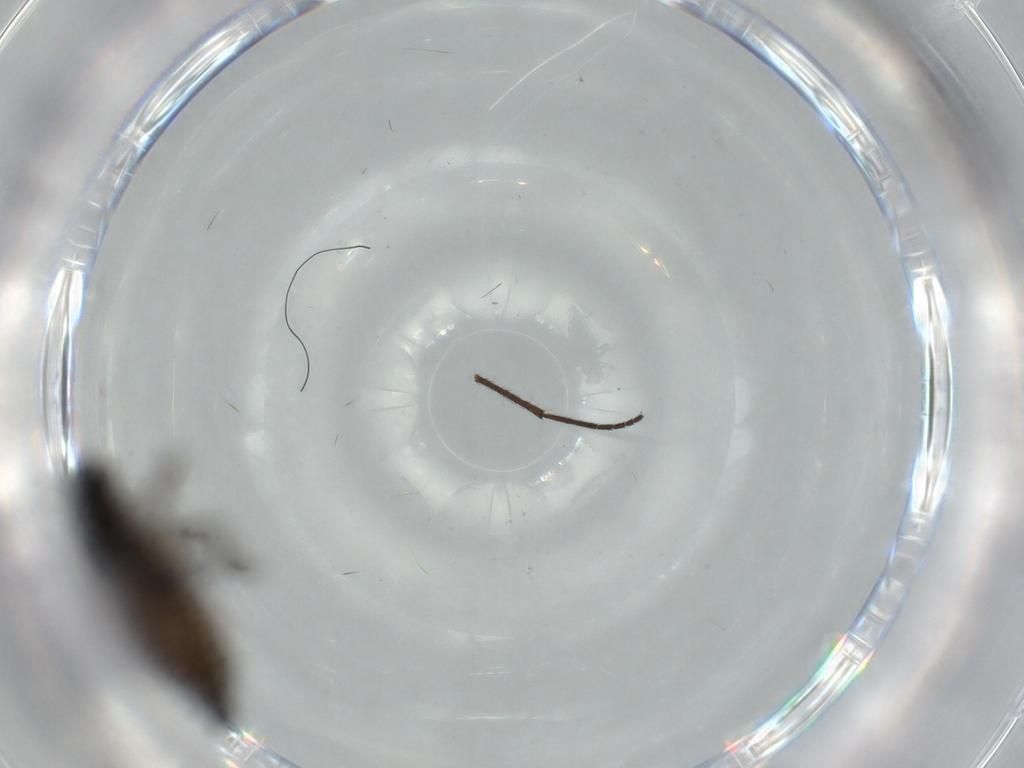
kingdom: Animalia
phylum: Arthropoda
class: Insecta
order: Diptera
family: Sciaridae
